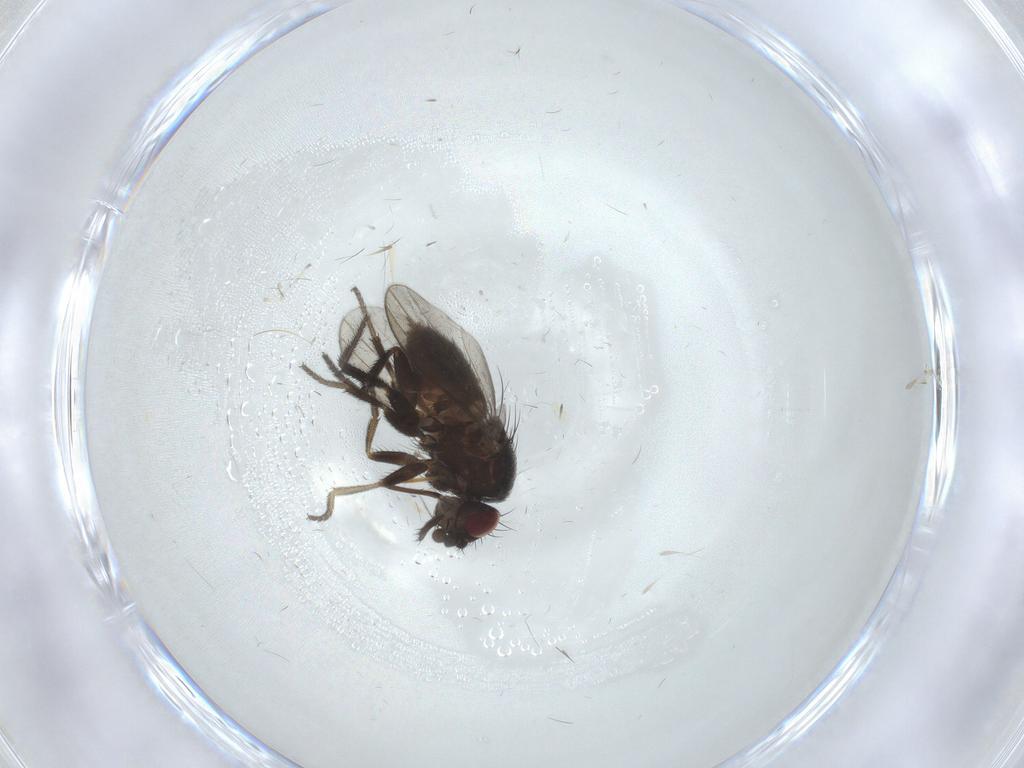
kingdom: Animalia
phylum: Arthropoda
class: Insecta
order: Diptera
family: Milichiidae
